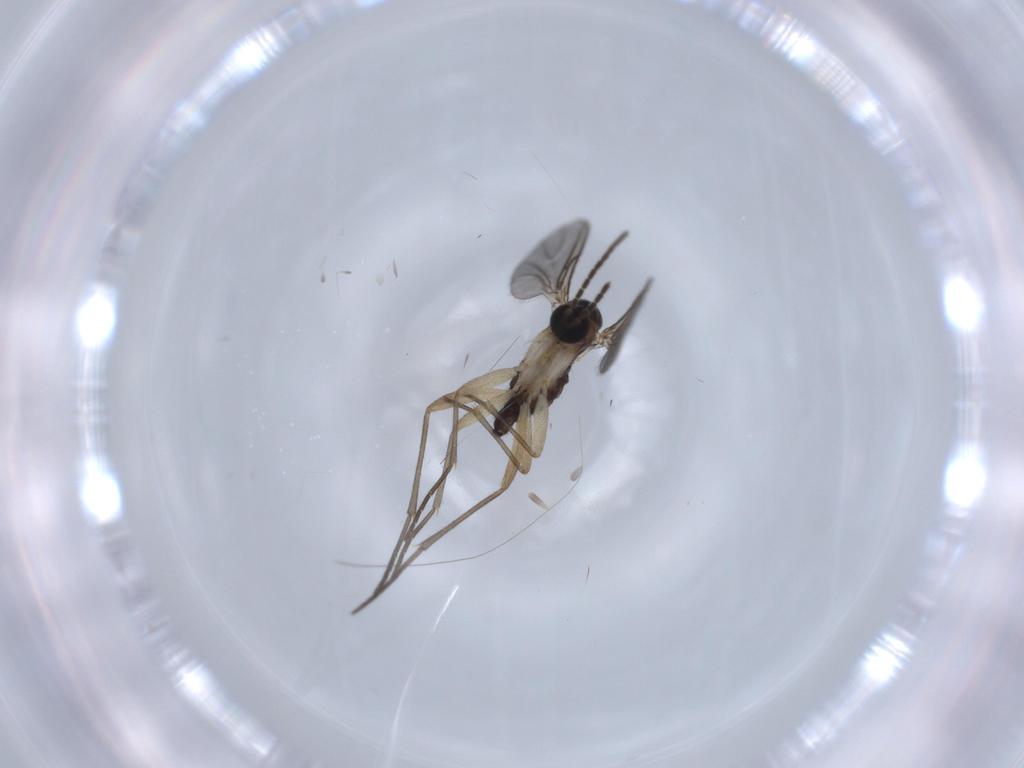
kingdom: Animalia
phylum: Arthropoda
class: Insecta
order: Diptera
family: Sciaridae
